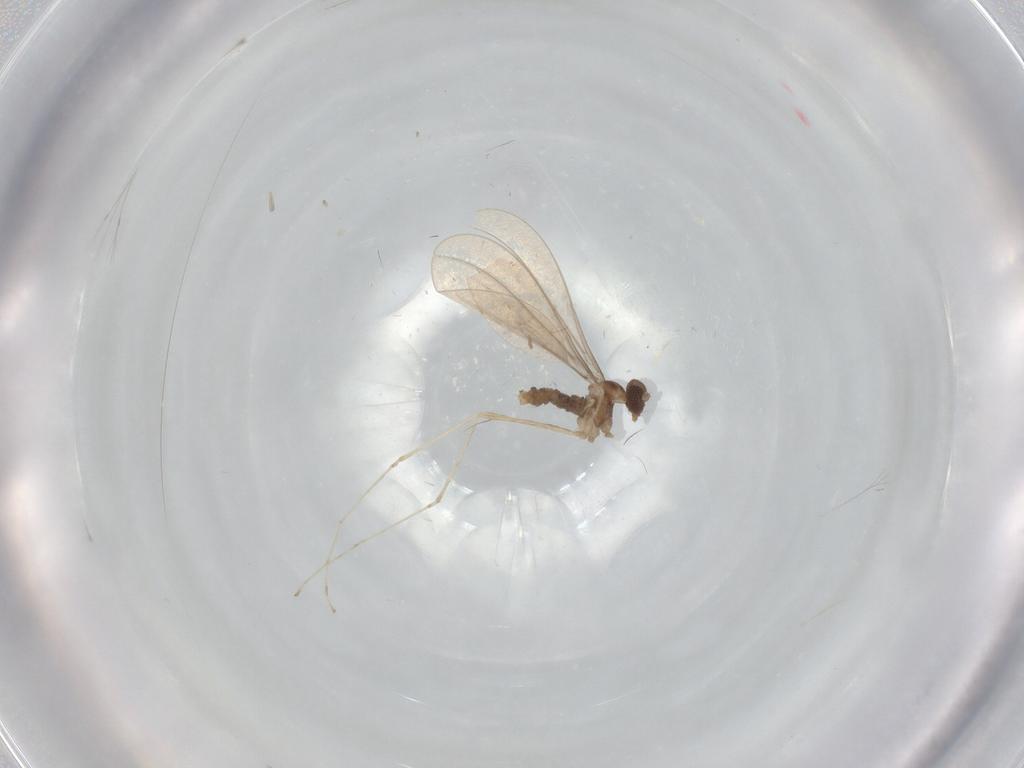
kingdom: Animalia
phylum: Arthropoda
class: Insecta
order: Diptera
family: Cecidomyiidae
